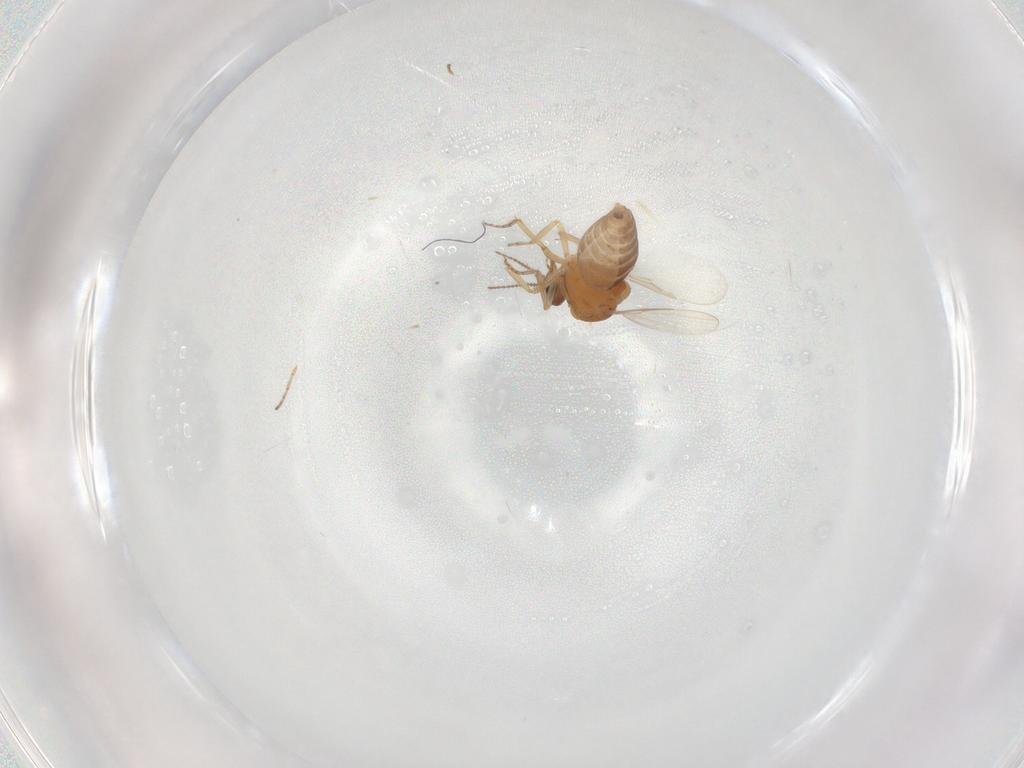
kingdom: Animalia
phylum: Arthropoda
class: Insecta
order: Diptera
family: Ceratopogonidae
